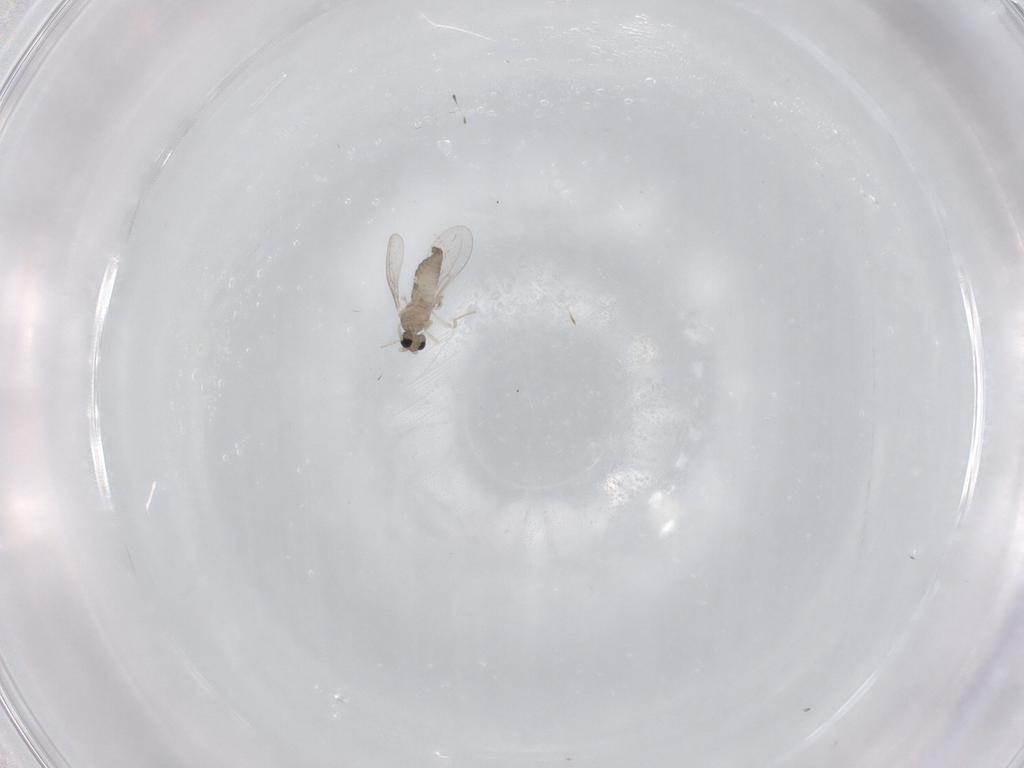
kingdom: Animalia
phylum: Arthropoda
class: Insecta
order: Diptera
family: Cecidomyiidae
